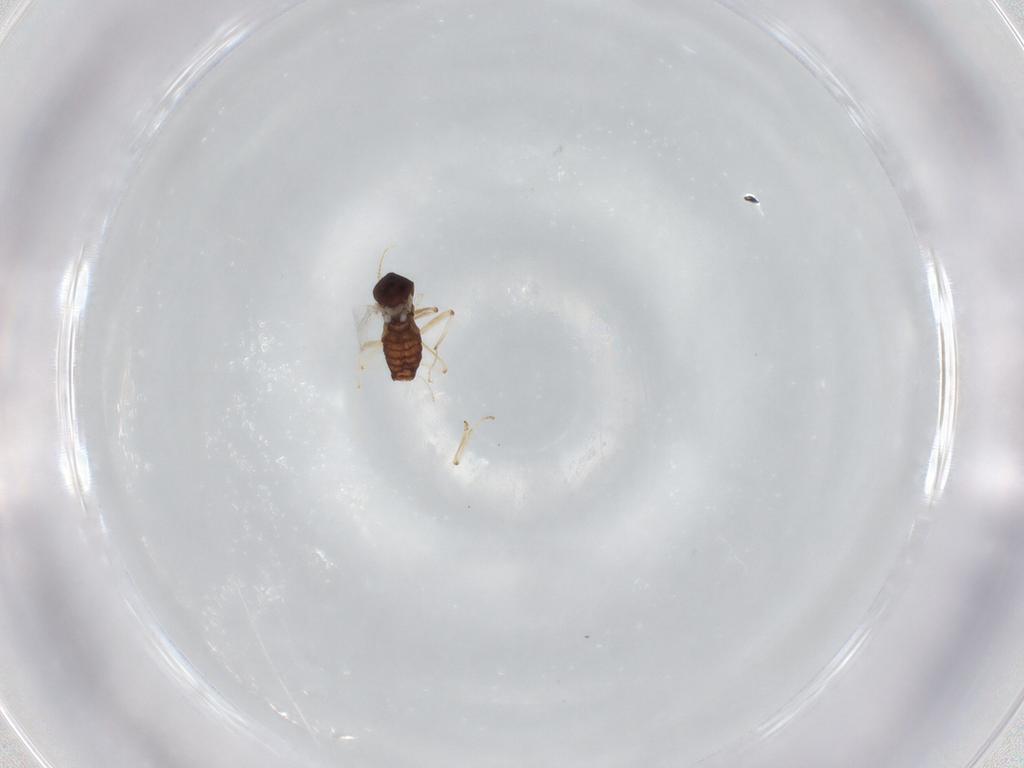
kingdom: Animalia
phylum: Arthropoda
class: Insecta
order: Diptera
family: Ceratopogonidae
